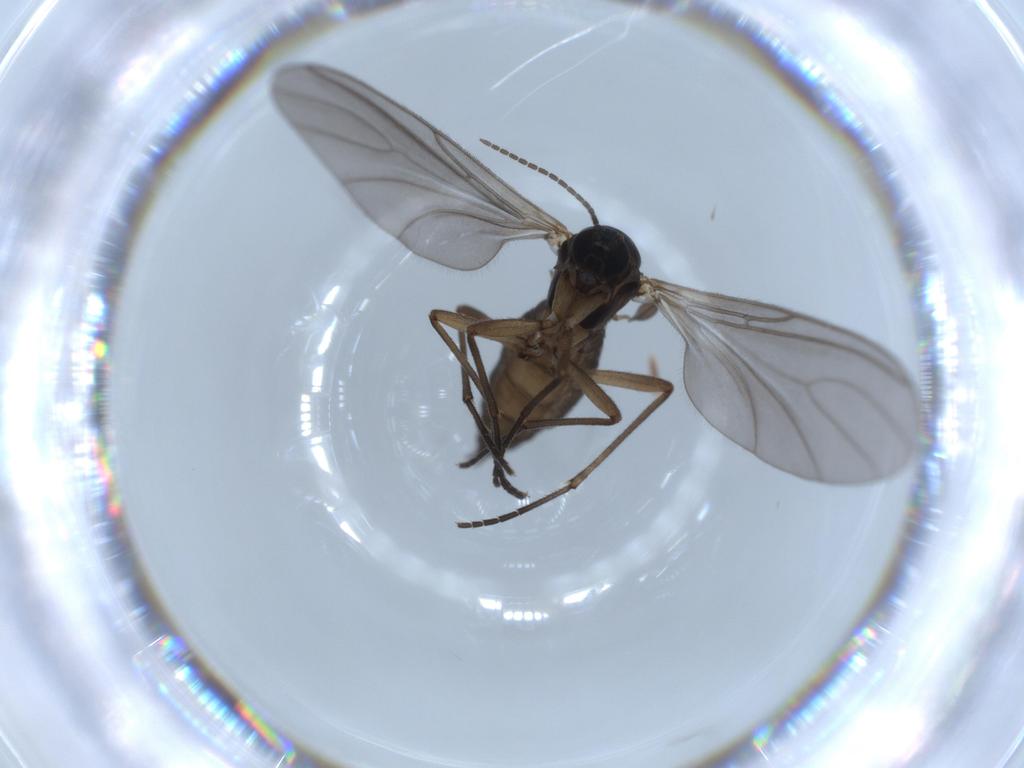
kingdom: Animalia
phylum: Arthropoda
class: Insecta
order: Diptera
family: Sciaridae
